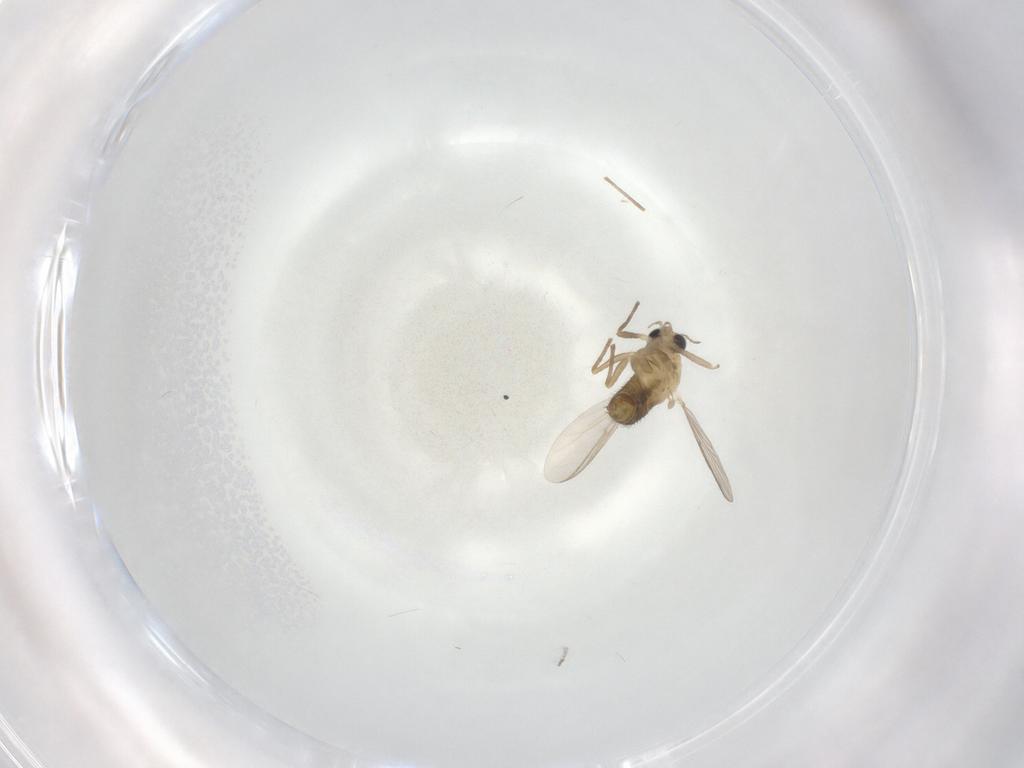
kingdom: Animalia
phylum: Arthropoda
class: Insecta
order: Diptera
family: Chironomidae
